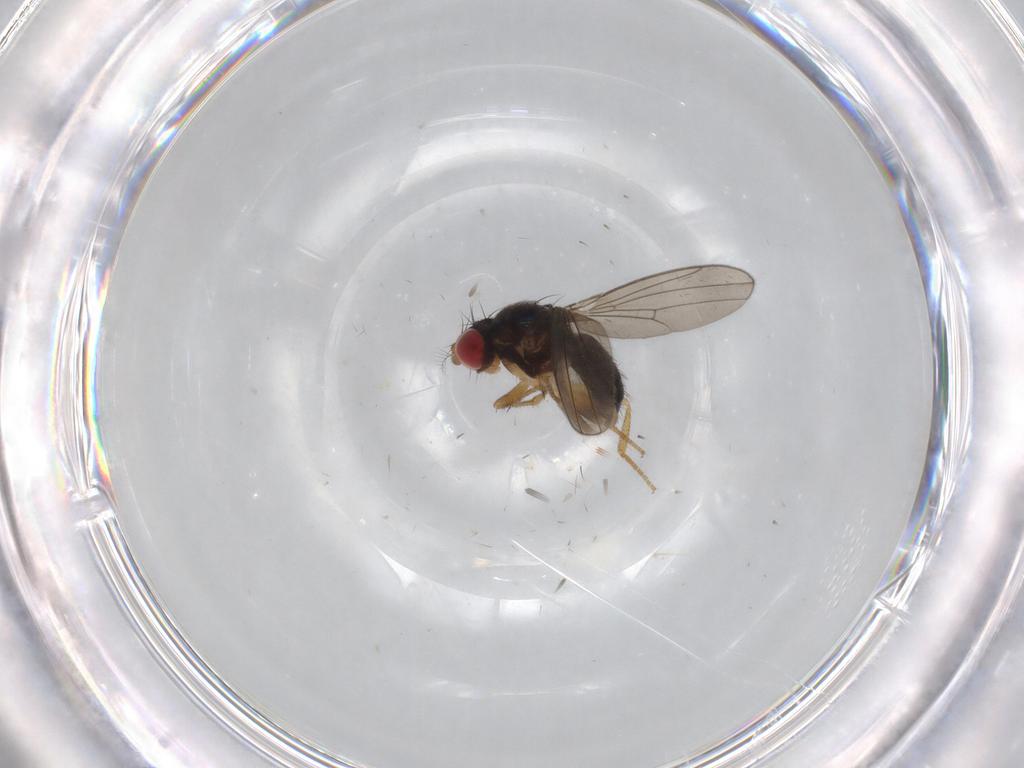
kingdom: Animalia
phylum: Arthropoda
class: Insecta
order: Diptera
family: Drosophilidae
